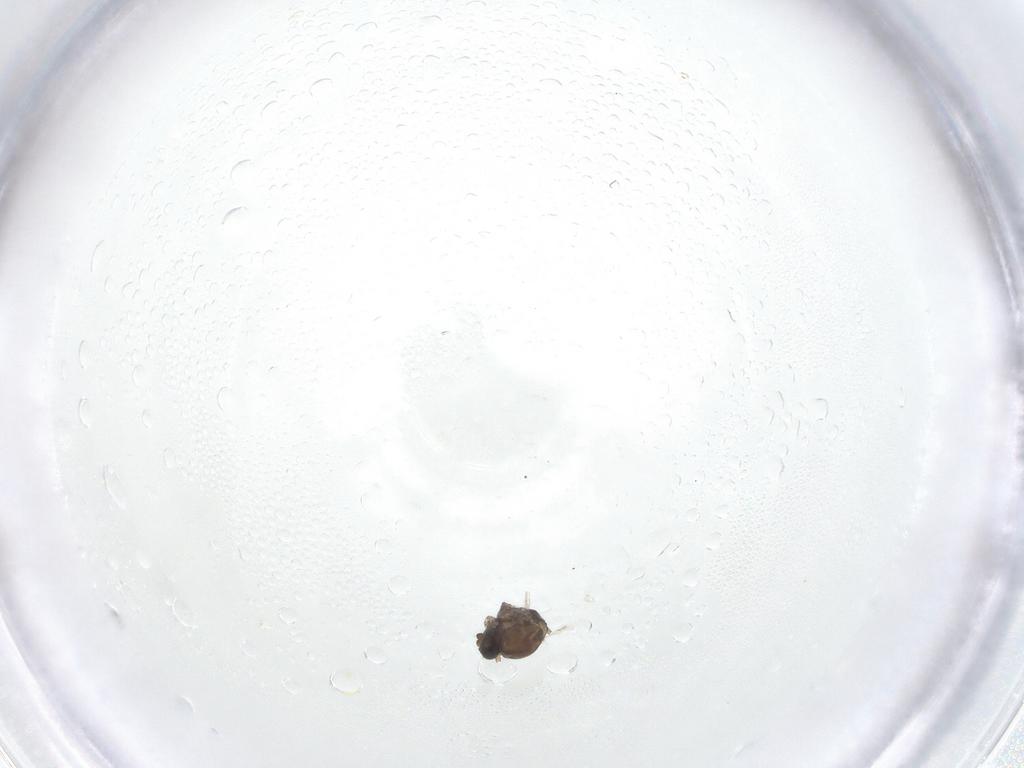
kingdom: Animalia
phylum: Arthropoda
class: Insecta
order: Diptera
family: Ceratopogonidae
